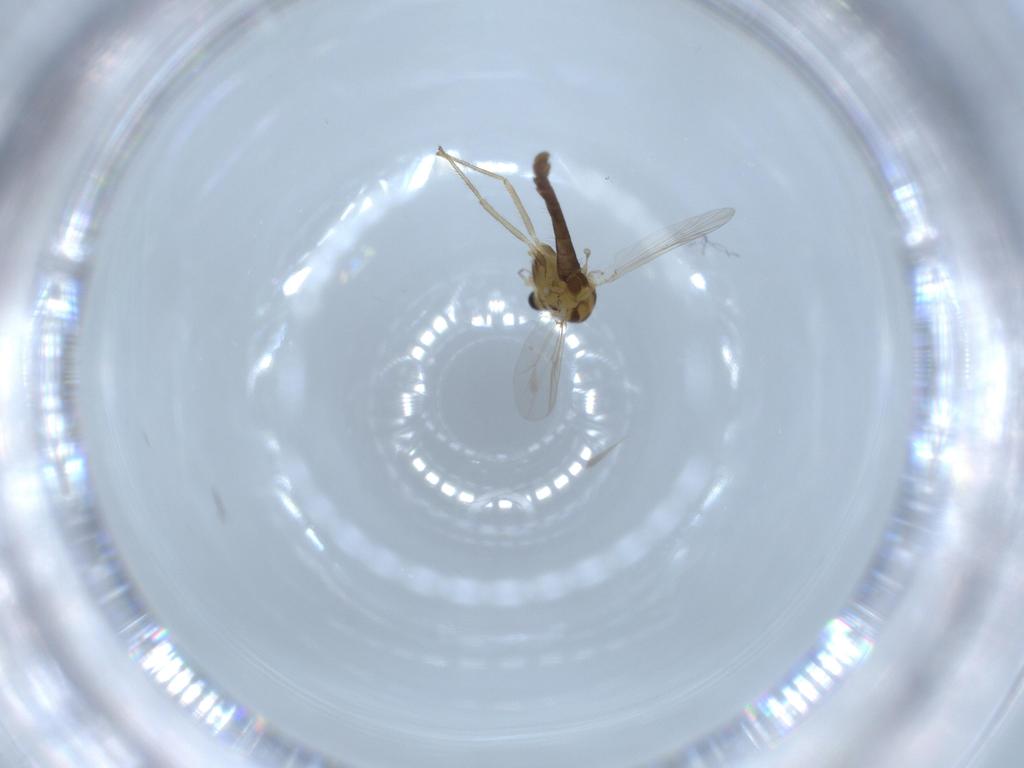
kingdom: Animalia
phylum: Arthropoda
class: Insecta
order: Diptera
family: Chironomidae
